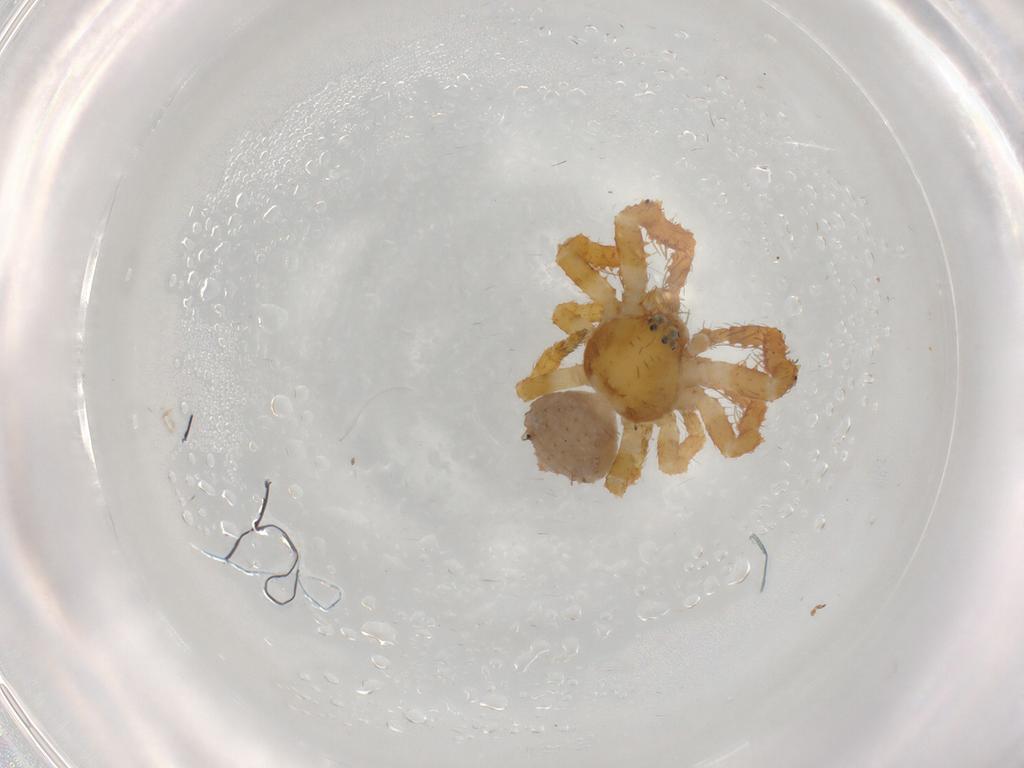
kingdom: Animalia
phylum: Arthropoda
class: Arachnida
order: Araneae
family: Thomisidae
